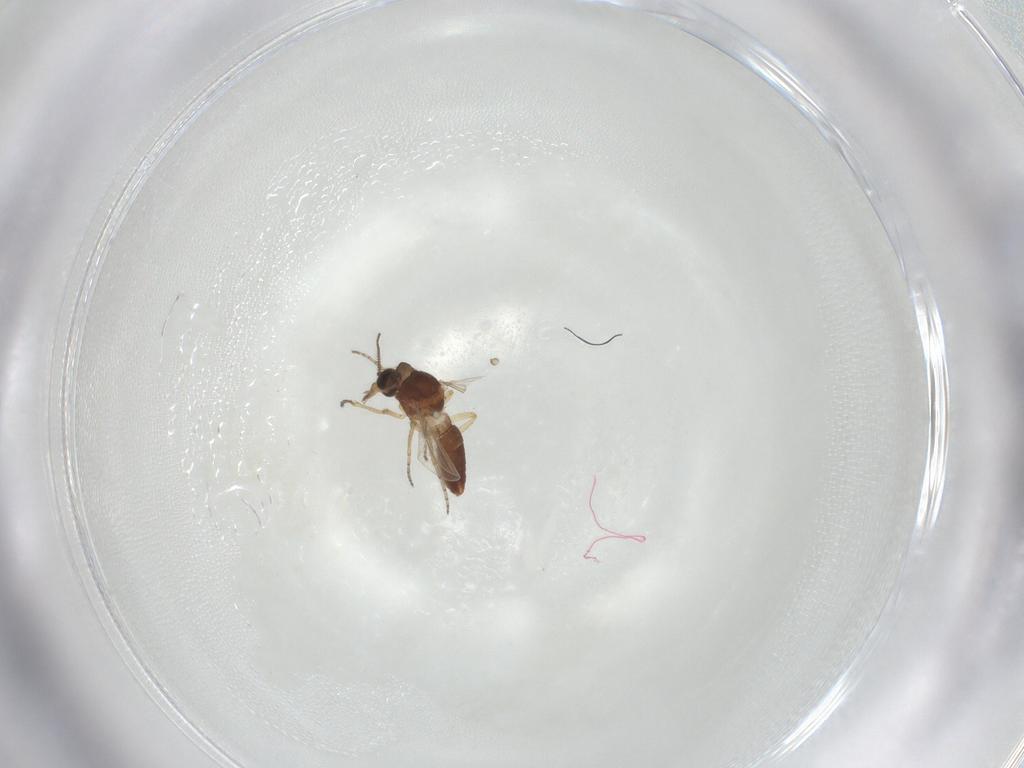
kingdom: Animalia
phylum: Arthropoda
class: Insecta
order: Diptera
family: Ceratopogonidae
